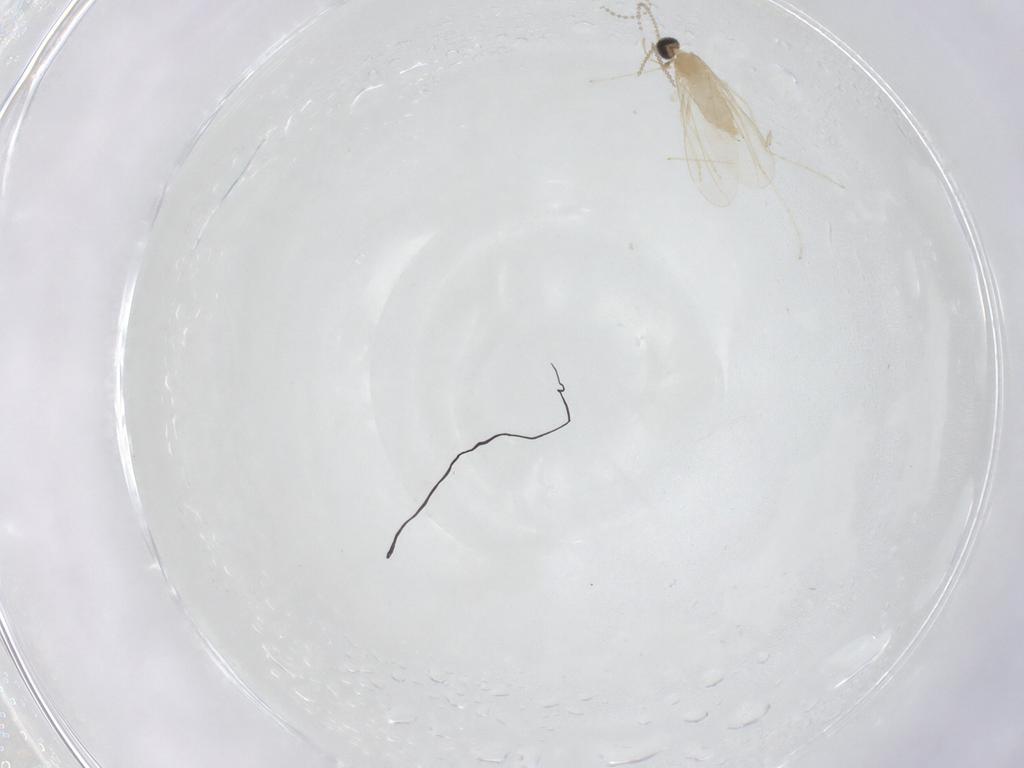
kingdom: Animalia
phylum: Arthropoda
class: Insecta
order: Diptera
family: Cecidomyiidae
